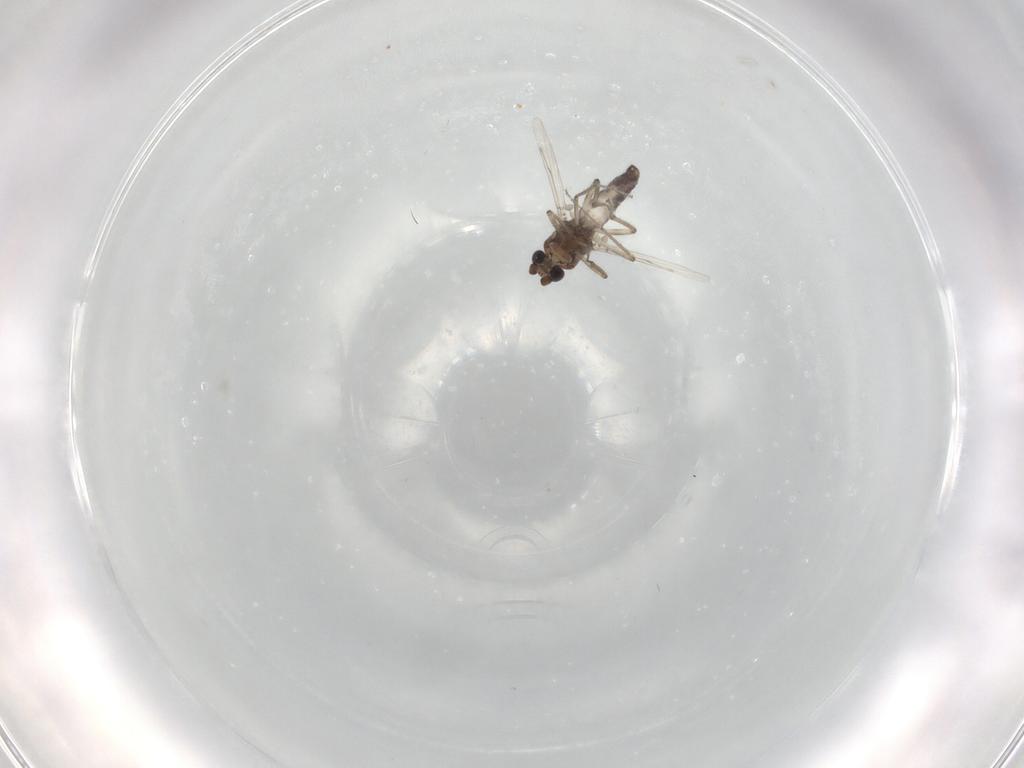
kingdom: Animalia
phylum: Arthropoda
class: Insecta
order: Diptera
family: Ceratopogonidae
